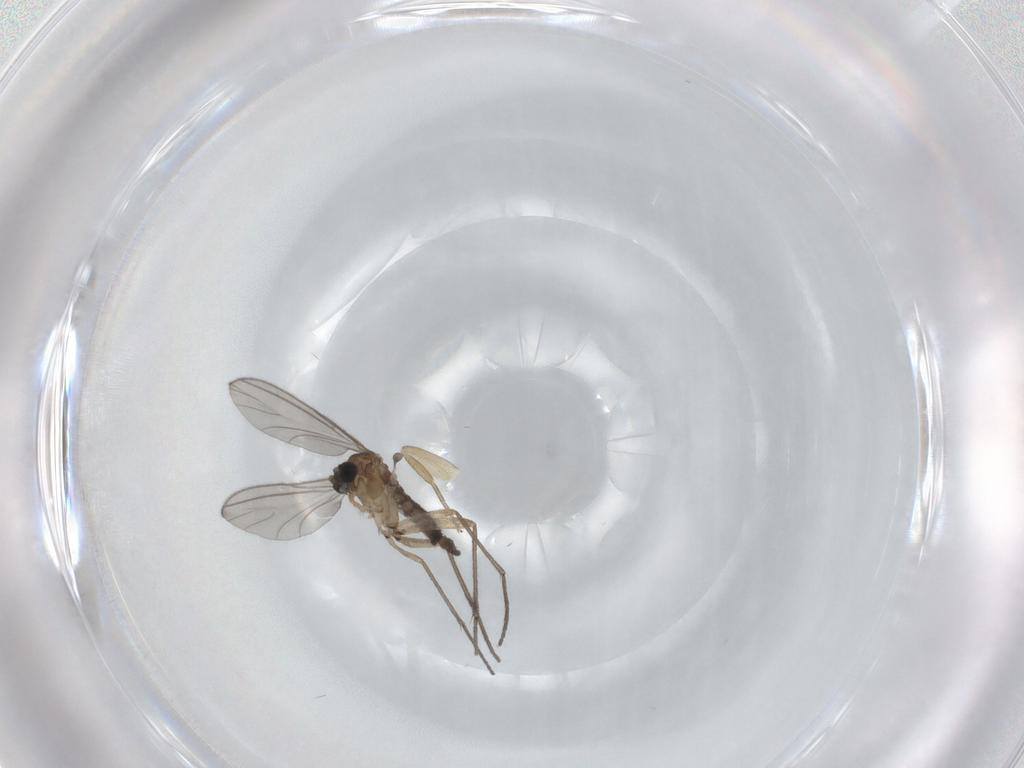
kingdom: Animalia
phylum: Arthropoda
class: Insecta
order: Diptera
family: Sciaridae
